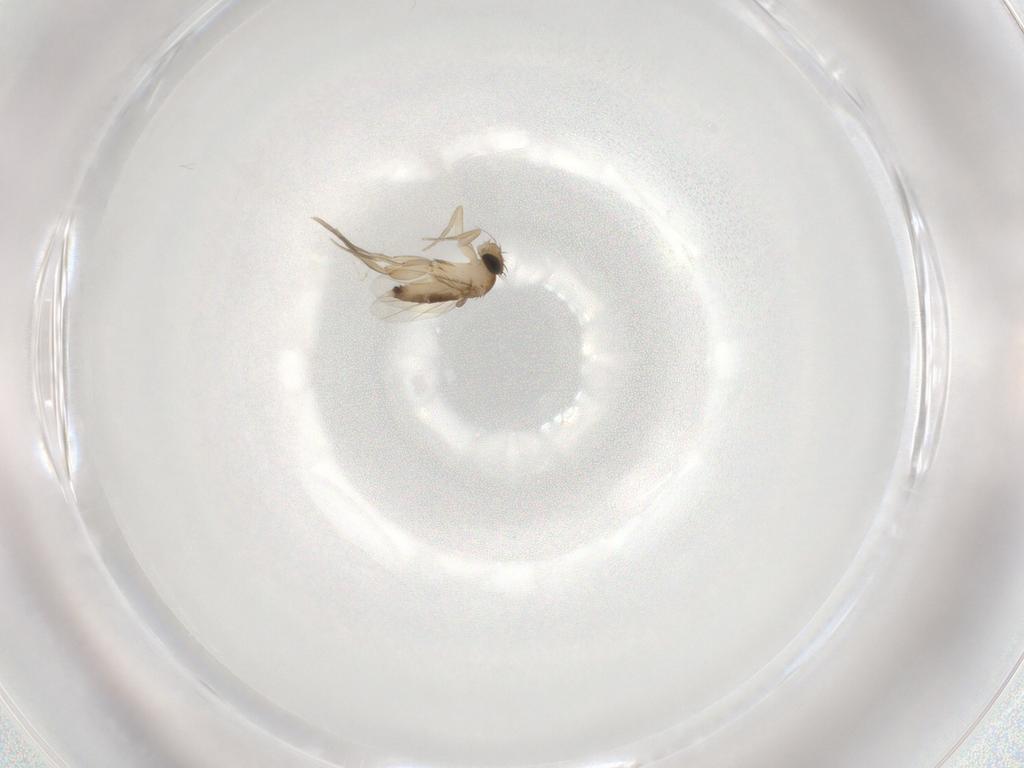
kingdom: Animalia
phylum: Arthropoda
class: Insecta
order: Diptera
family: Phoridae
